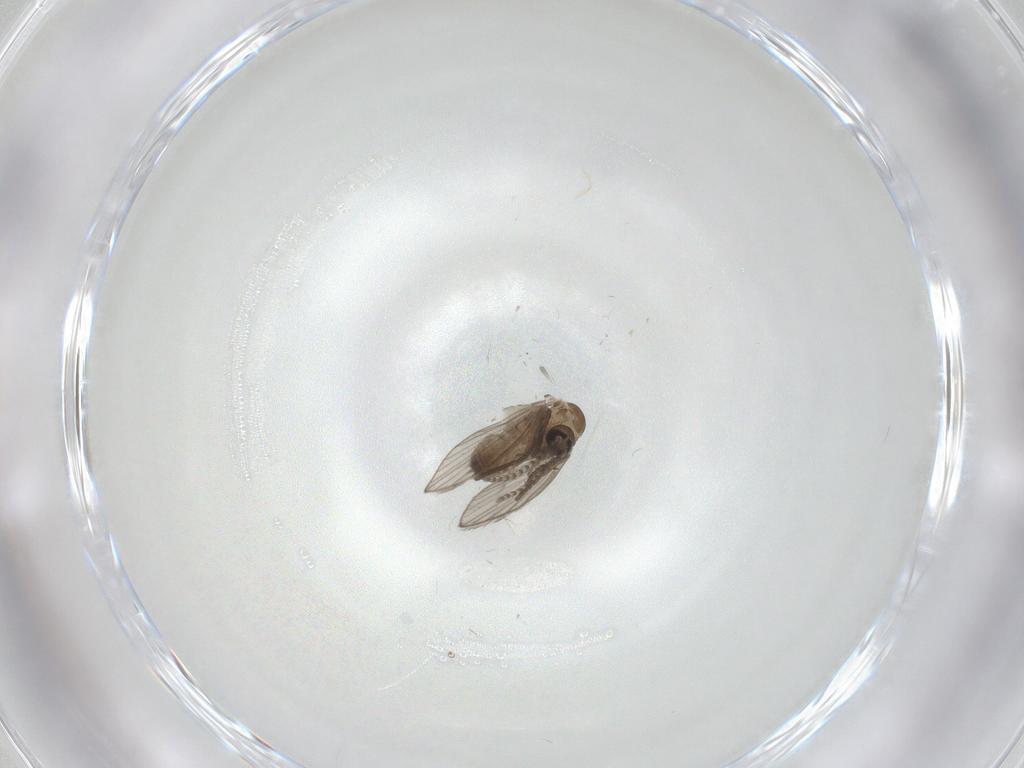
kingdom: Animalia
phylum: Arthropoda
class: Insecta
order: Diptera
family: Psychodidae
